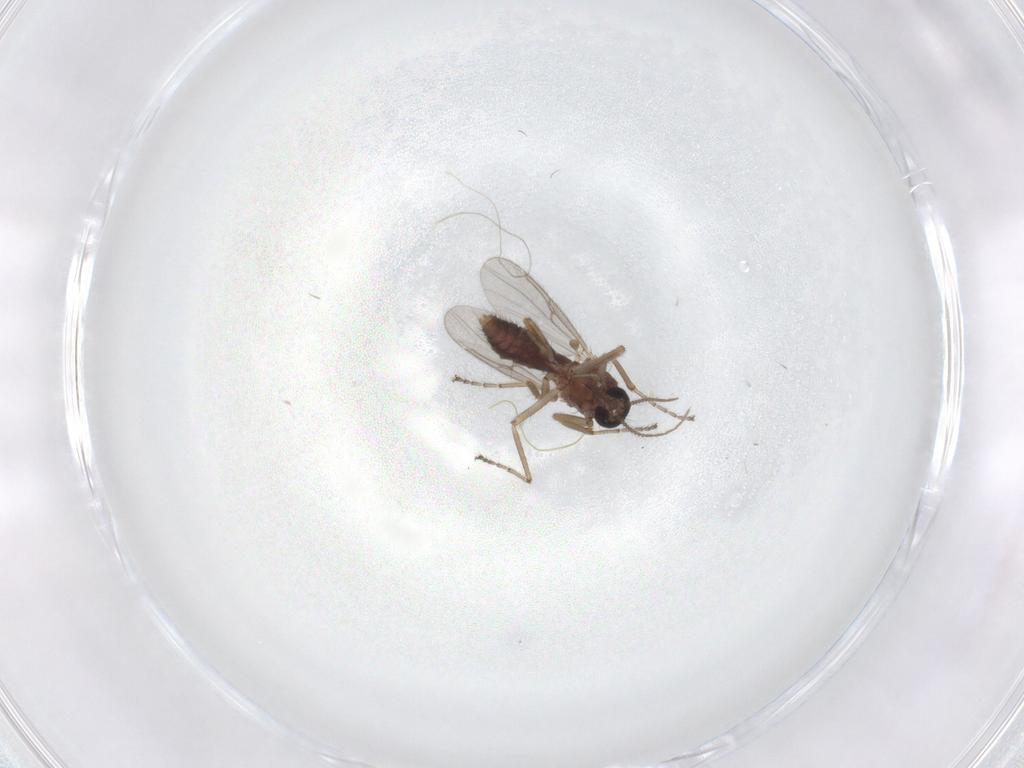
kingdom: Animalia
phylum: Arthropoda
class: Insecta
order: Diptera
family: Ceratopogonidae
